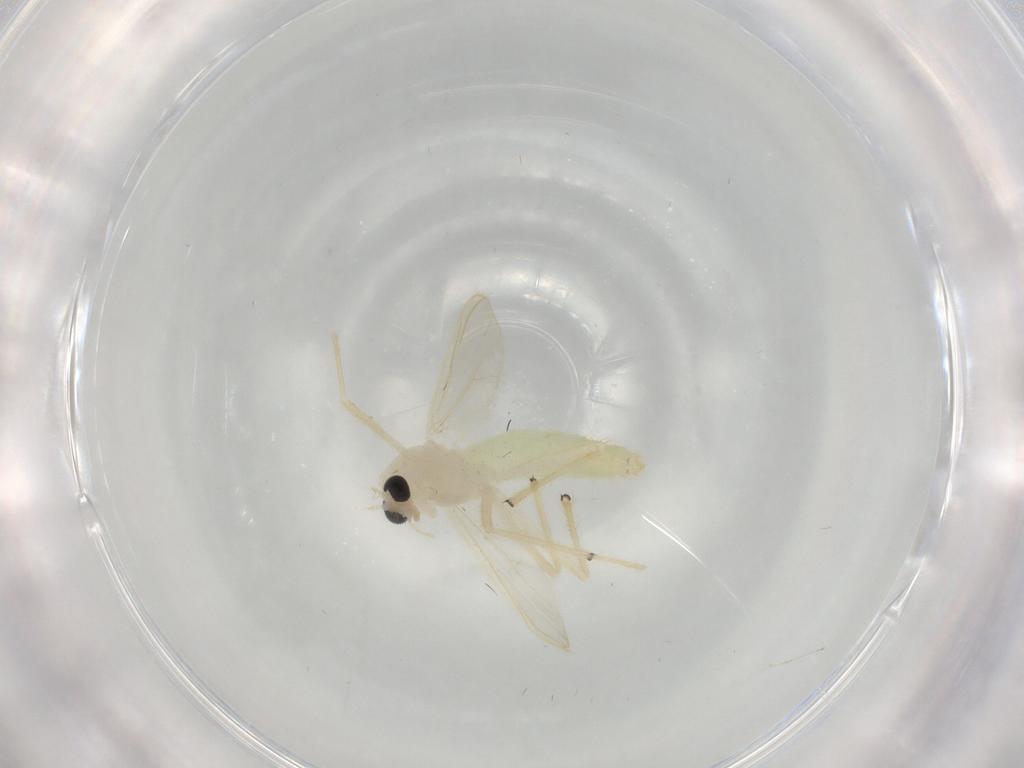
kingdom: Animalia
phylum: Arthropoda
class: Insecta
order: Diptera
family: Chironomidae
